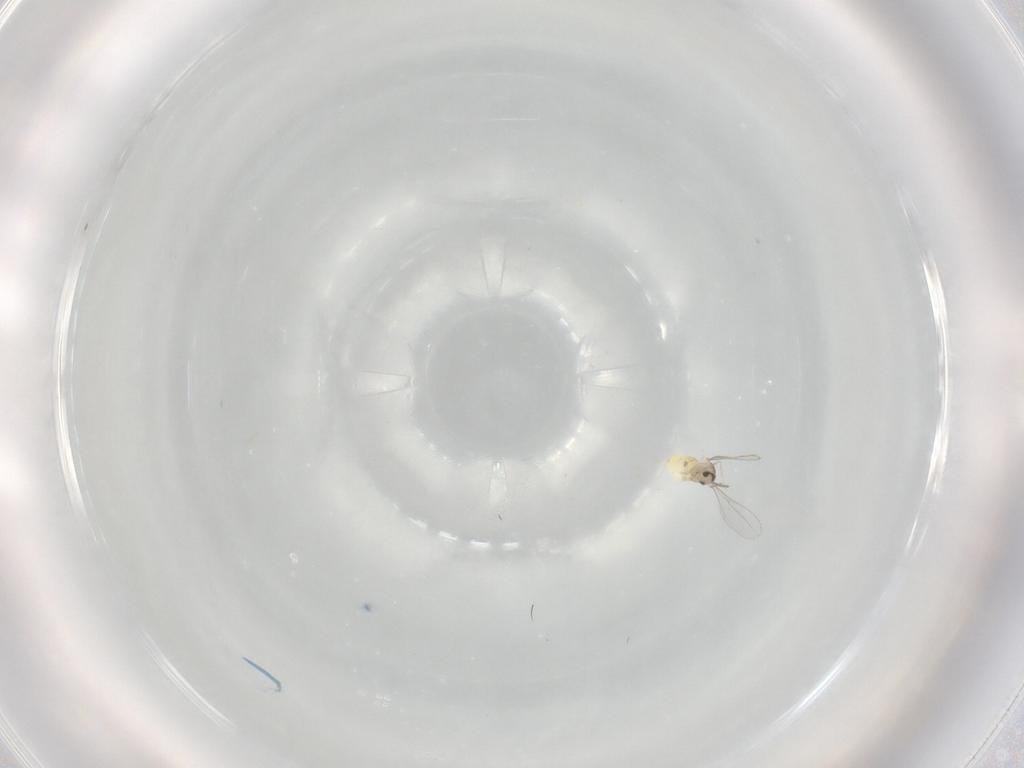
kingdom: Animalia
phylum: Arthropoda
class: Insecta
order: Diptera
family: Cecidomyiidae
